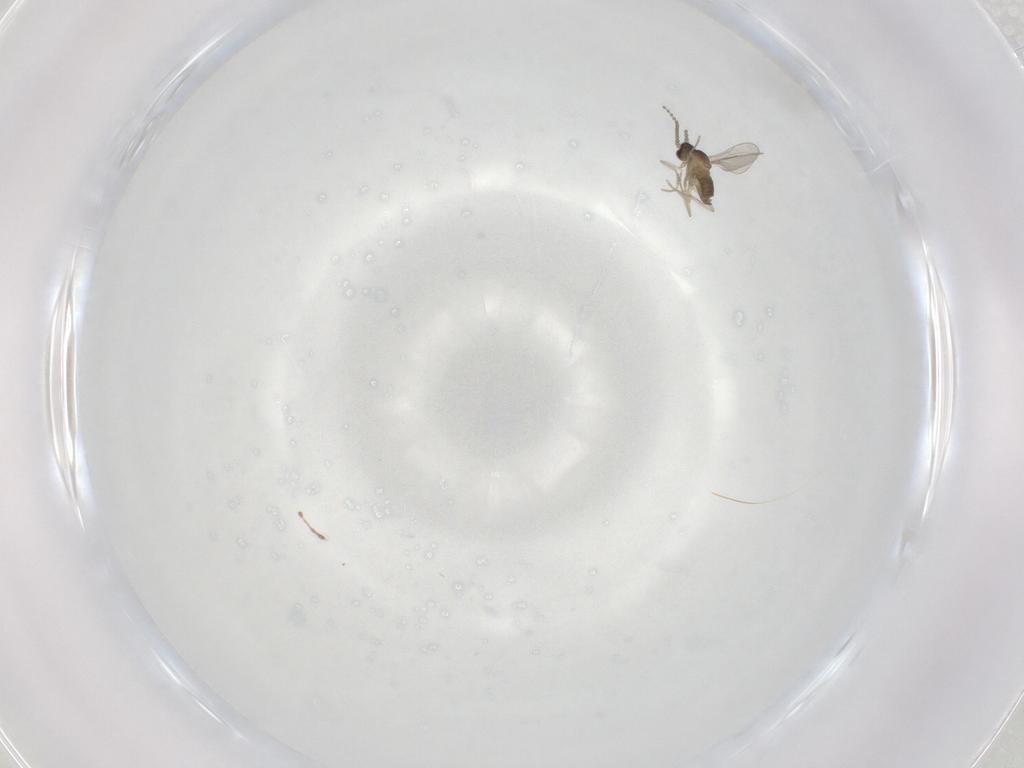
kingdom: Animalia
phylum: Arthropoda
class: Insecta
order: Diptera
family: Cecidomyiidae
